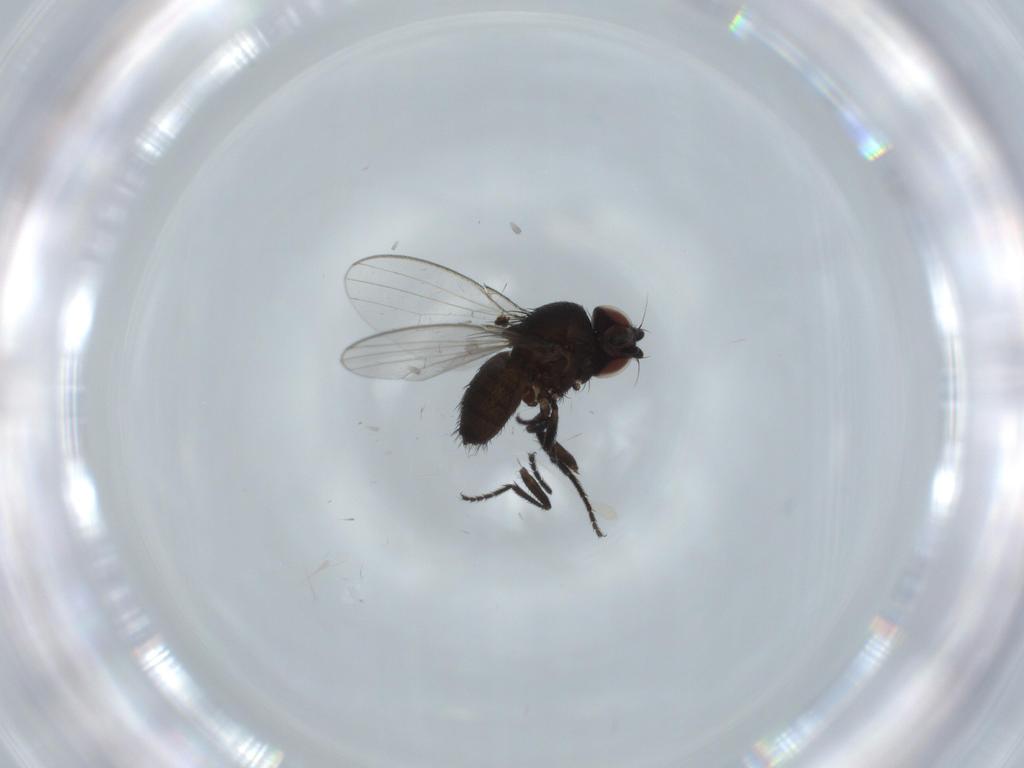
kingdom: Animalia
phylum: Arthropoda
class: Insecta
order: Diptera
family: Milichiidae
